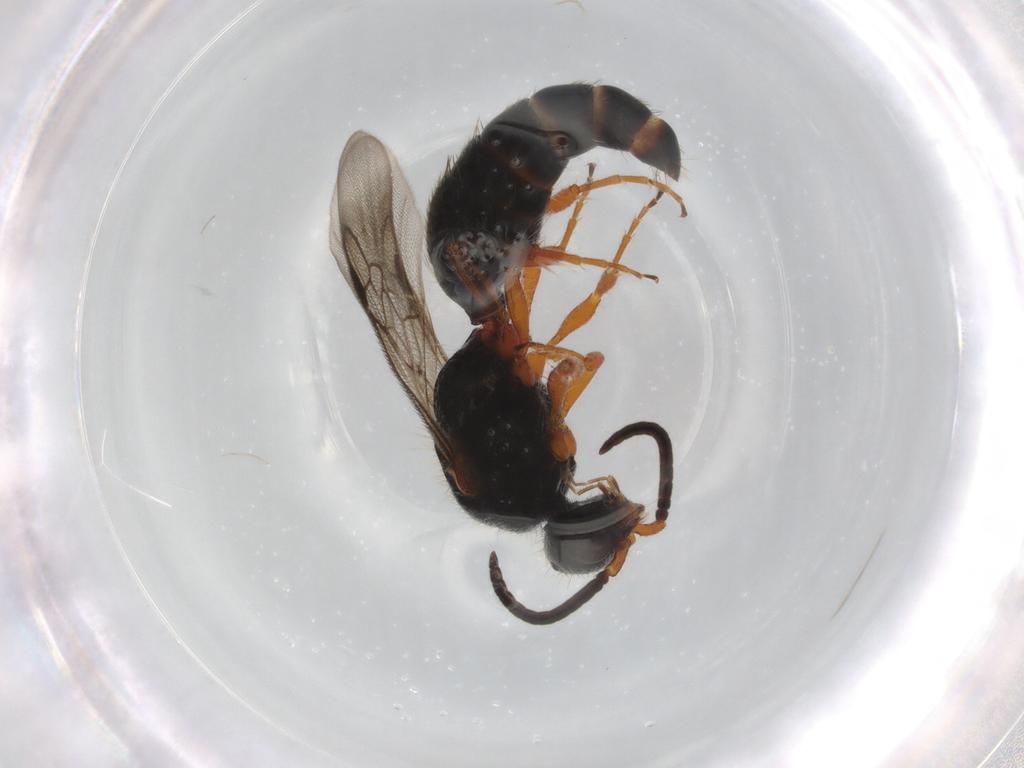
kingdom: Animalia
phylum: Arthropoda
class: Insecta
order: Hymenoptera
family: Mutillidae
